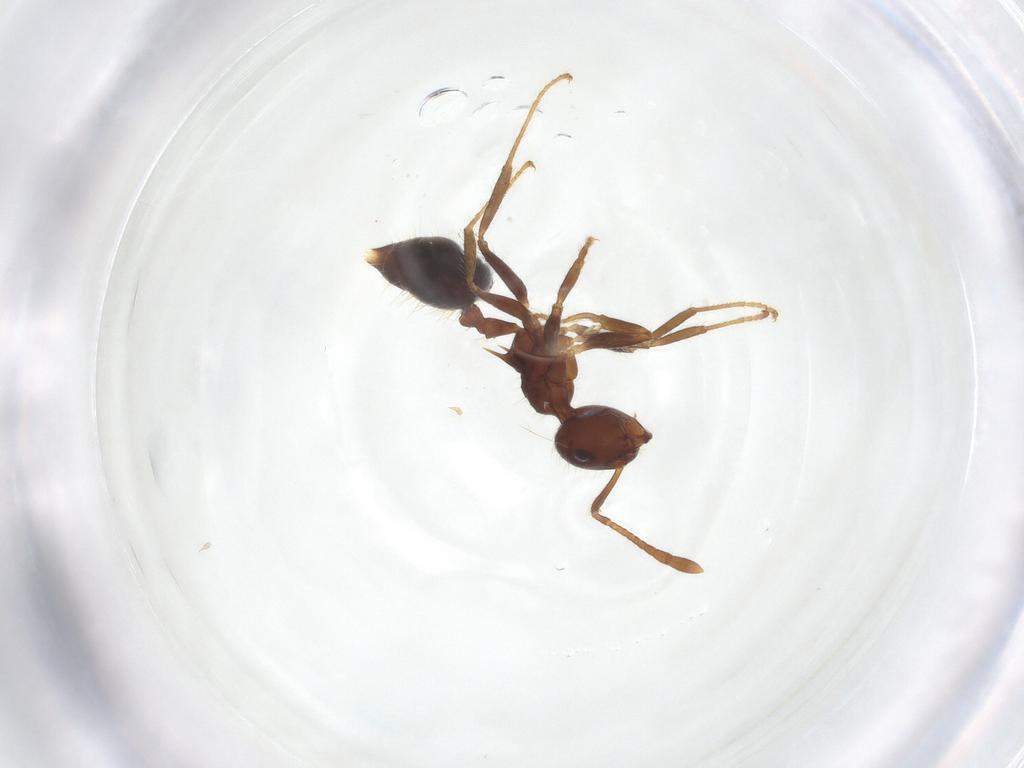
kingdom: Animalia
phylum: Arthropoda
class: Insecta
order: Hymenoptera
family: Formicidae
